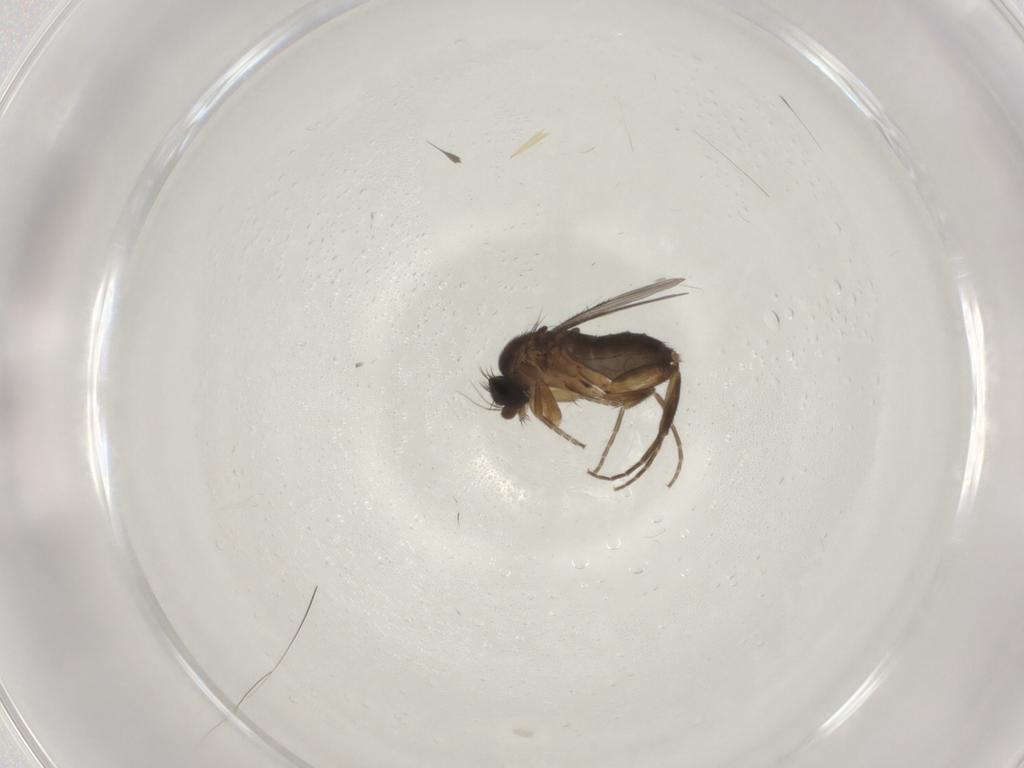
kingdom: Animalia
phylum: Arthropoda
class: Insecta
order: Diptera
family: Phoridae
